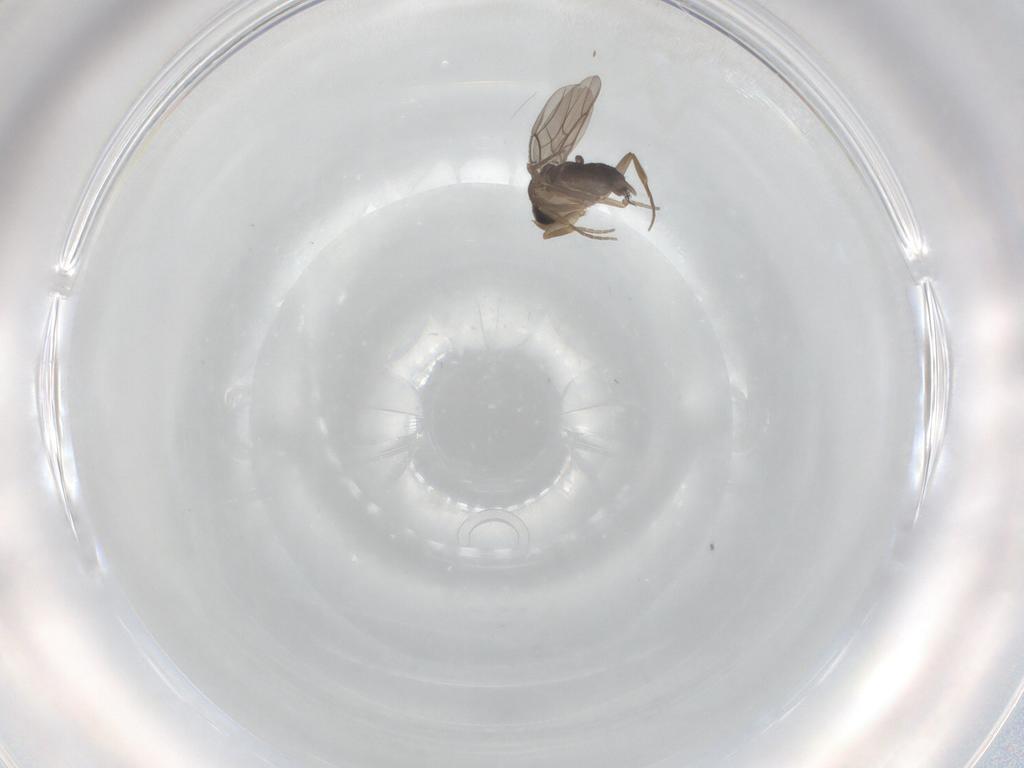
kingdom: Animalia
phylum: Arthropoda
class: Insecta
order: Diptera
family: Phoridae
